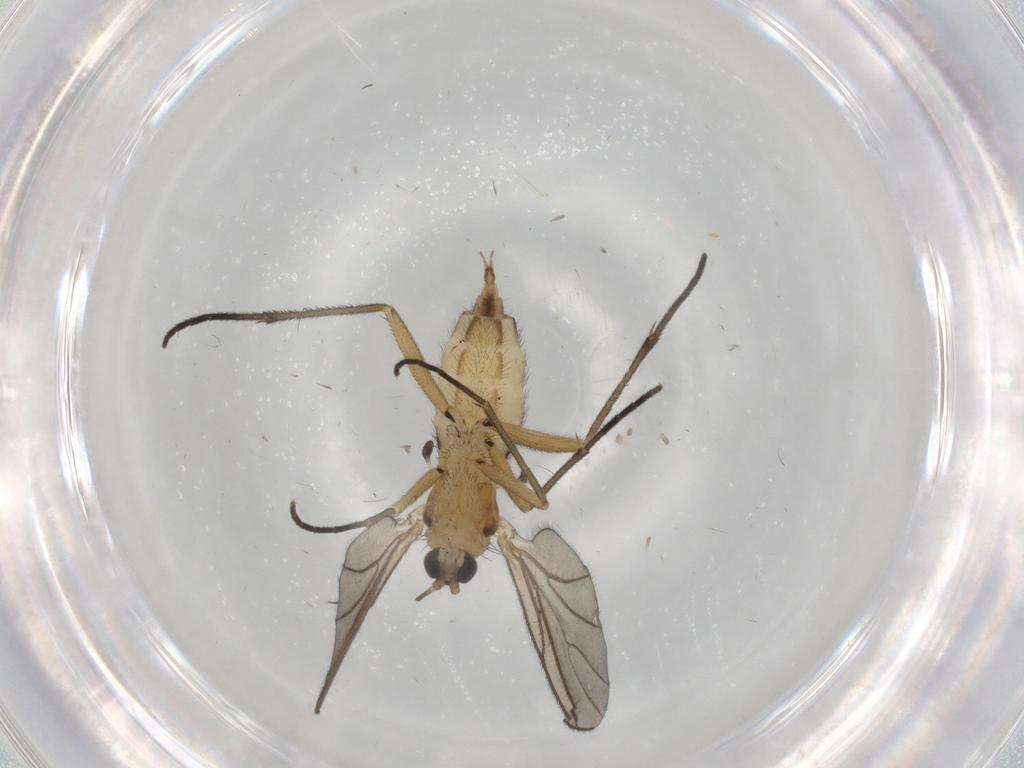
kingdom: Animalia
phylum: Arthropoda
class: Insecta
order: Diptera
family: Sciaridae
